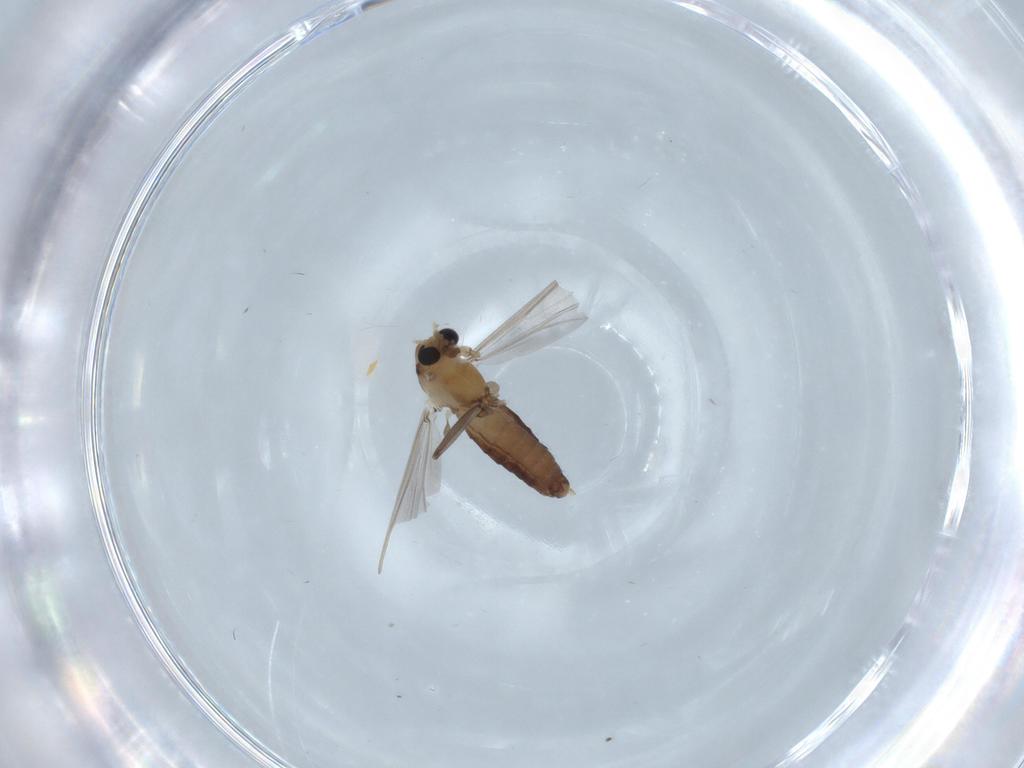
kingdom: Animalia
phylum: Arthropoda
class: Insecta
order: Diptera
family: Chironomidae
